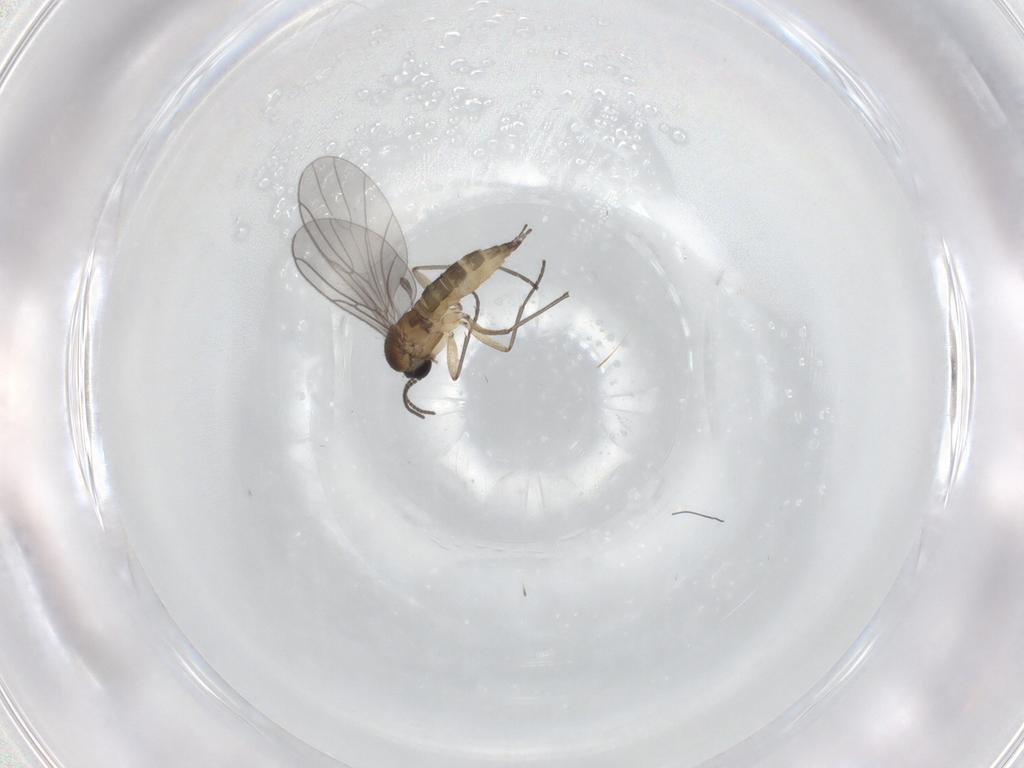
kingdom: Animalia
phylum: Arthropoda
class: Insecta
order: Diptera
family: Sciaridae
